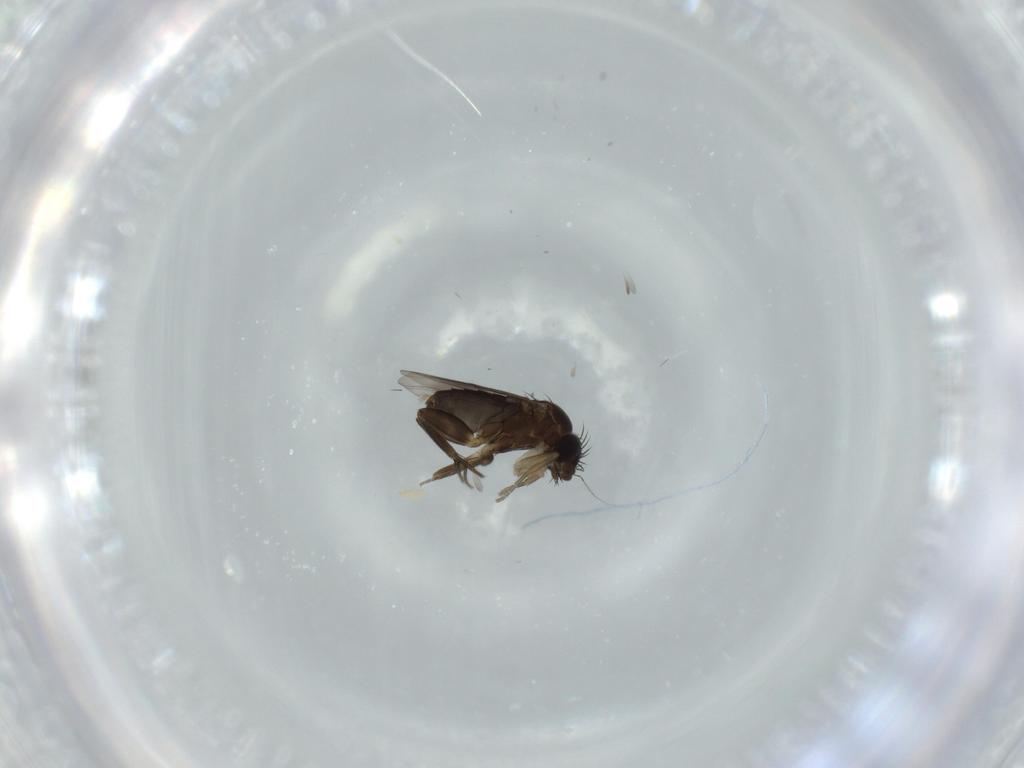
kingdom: Animalia
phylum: Arthropoda
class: Insecta
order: Diptera
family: Phoridae
